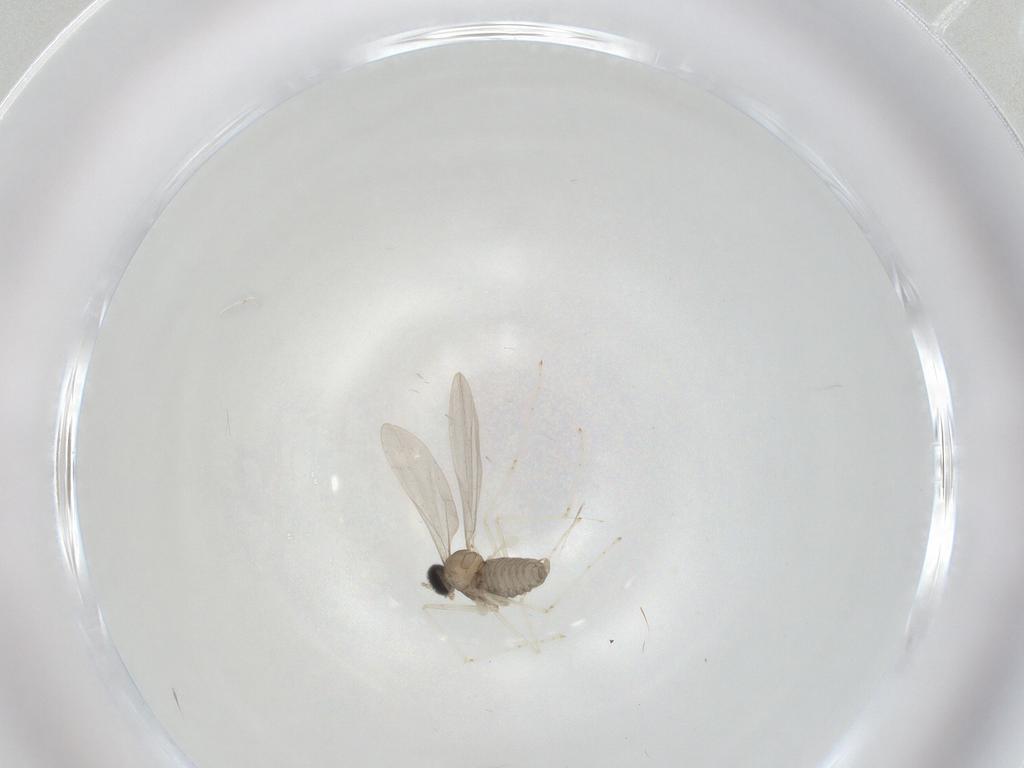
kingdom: Animalia
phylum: Arthropoda
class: Insecta
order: Diptera
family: Cecidomyiidae
